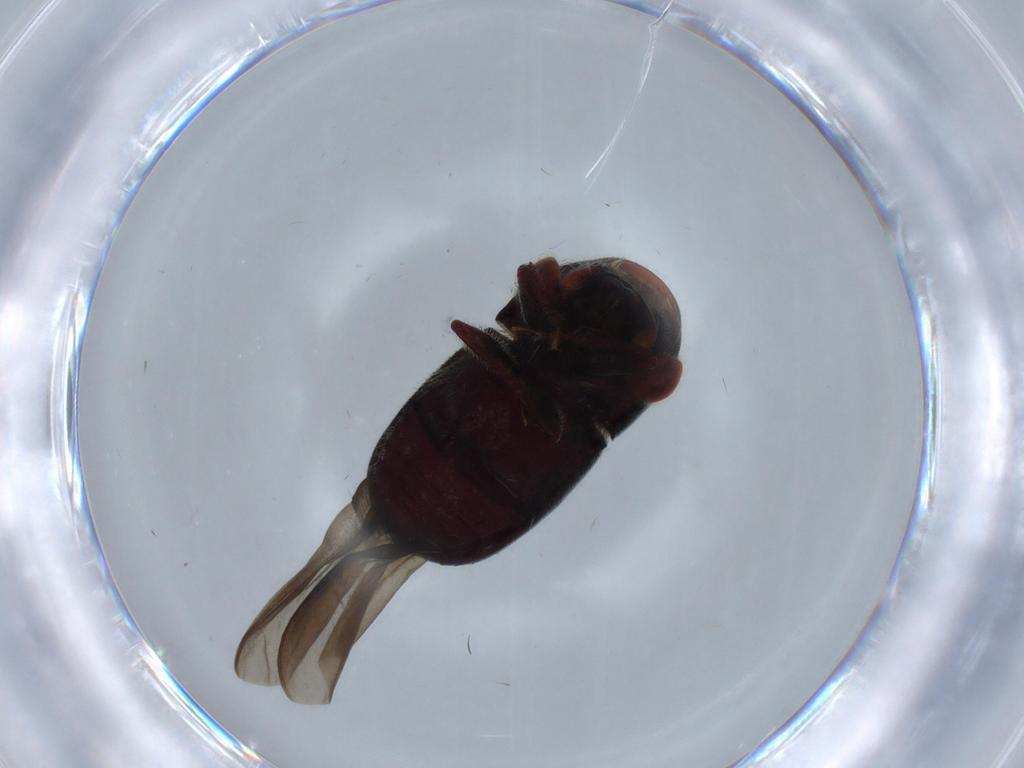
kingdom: Animalia
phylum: Arthropoda
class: Insecta
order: Coleoptera
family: Curculionidae
